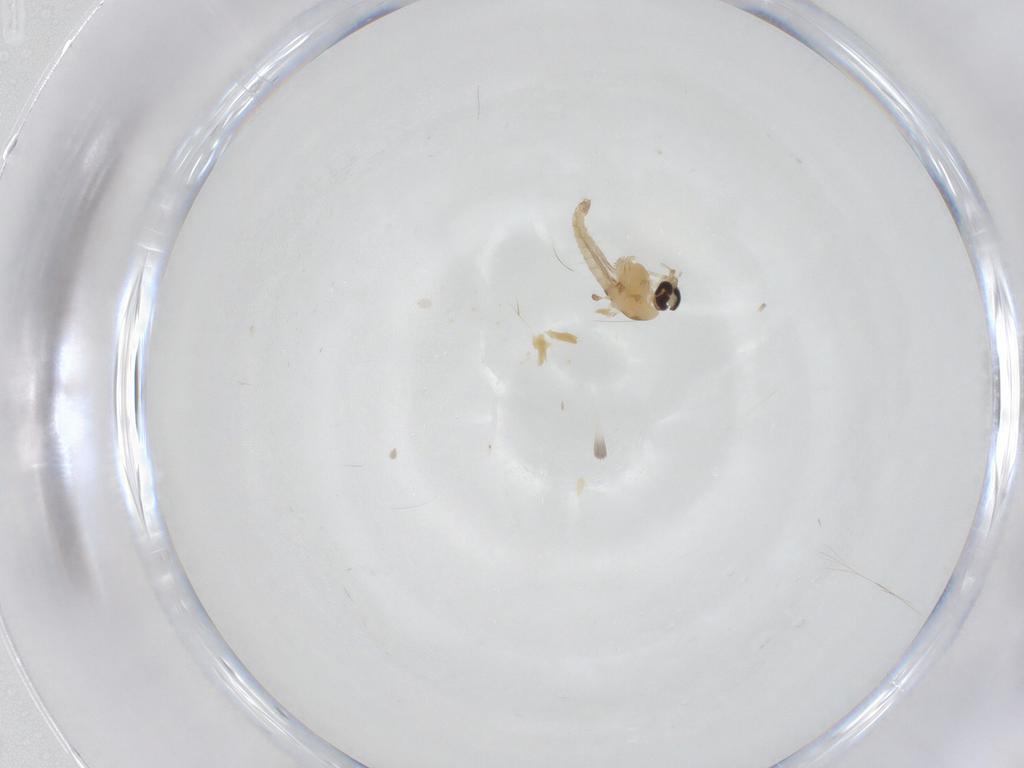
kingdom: Animalia
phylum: Arthropoda
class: Insecta
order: Diptera
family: Chironomidae
